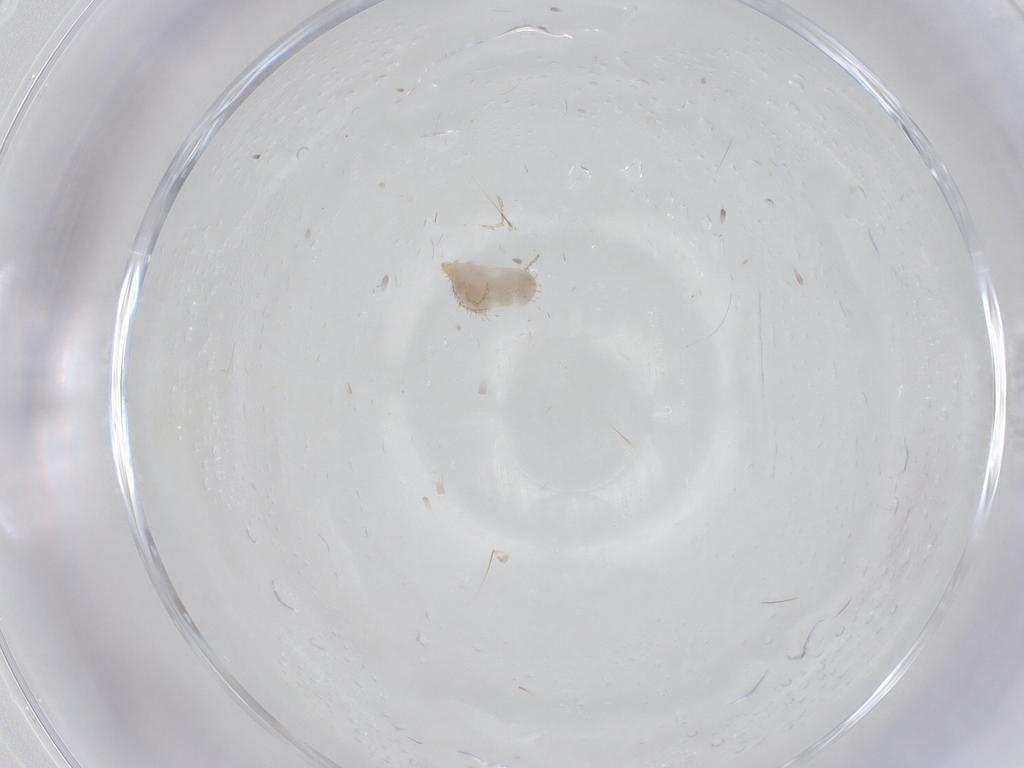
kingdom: Animalia
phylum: Arthropoda
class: Insecta
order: Diptera
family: Mycetophilidae
